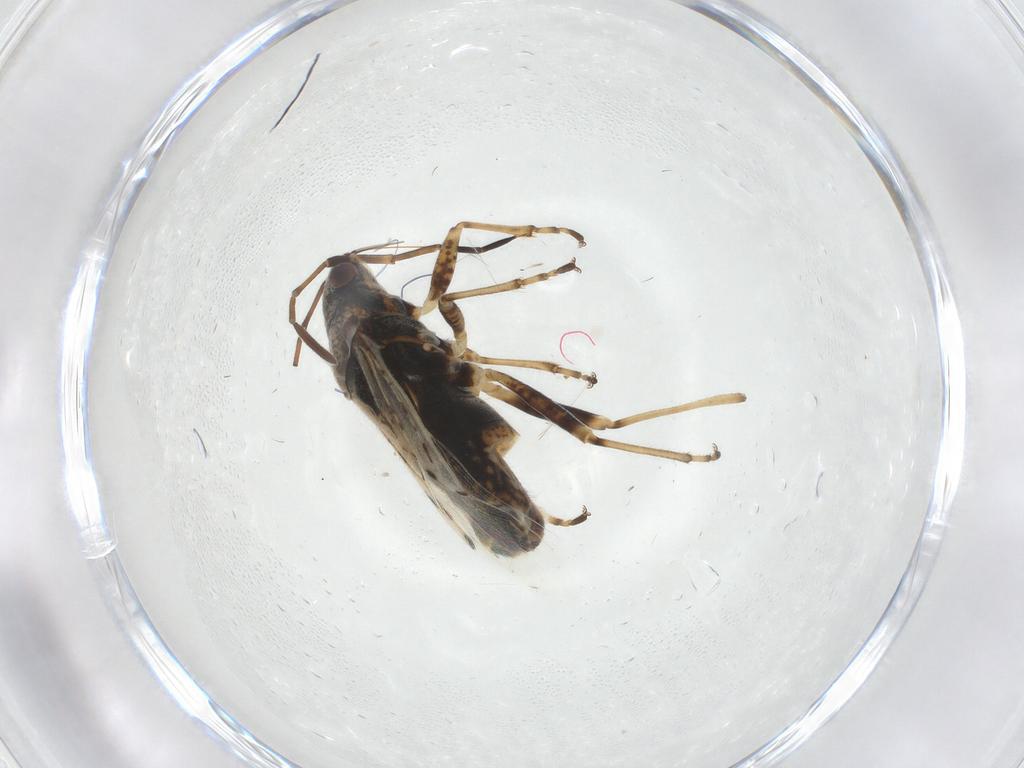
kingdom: Animalia
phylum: Arthropoda
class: Insecta
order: Hemiptera
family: Lygaeidae
